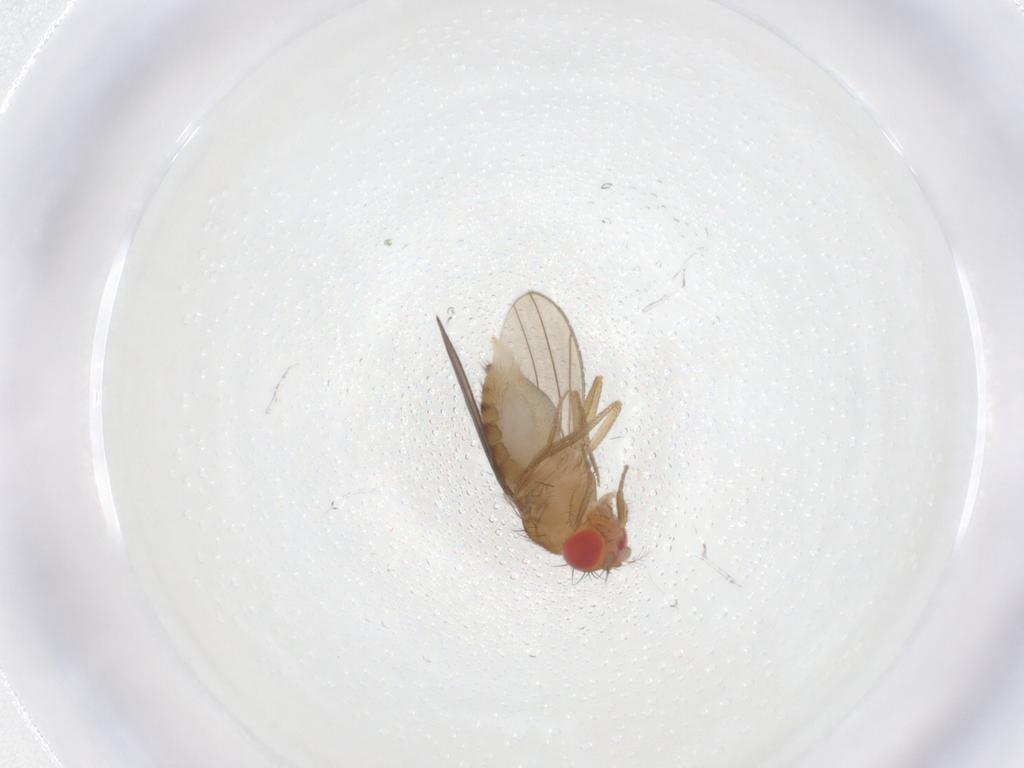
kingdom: Animalia
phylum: Arthropoda
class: Insecta
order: Diptera
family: Drosophilidae
